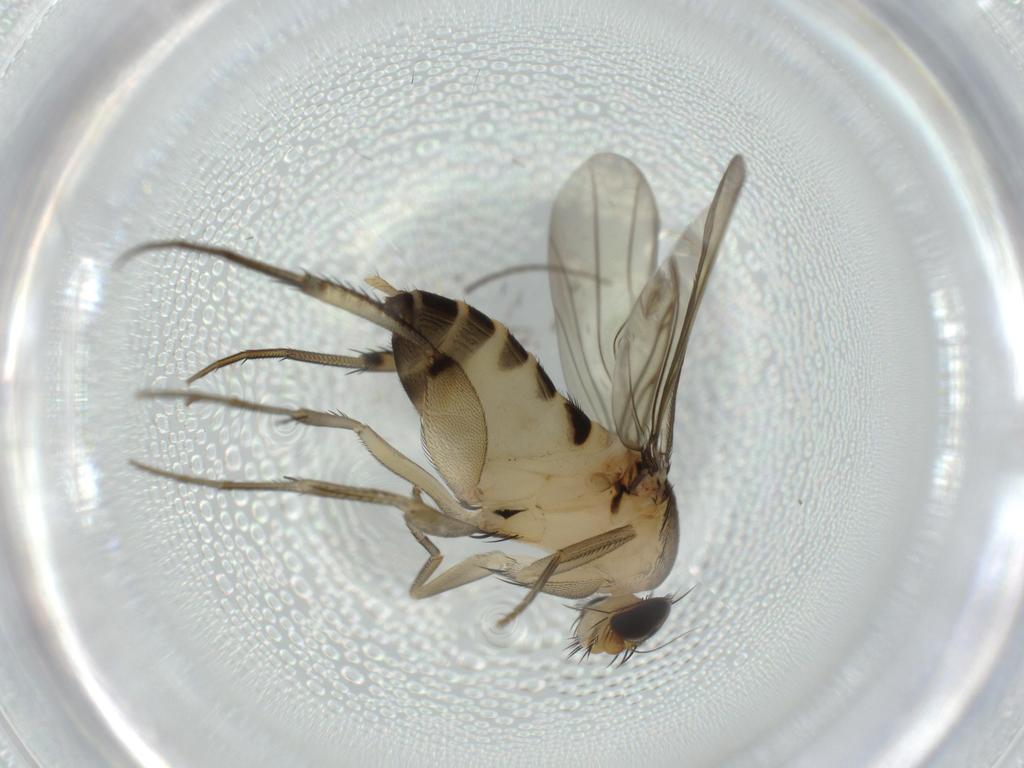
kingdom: Animalia
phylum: Arthropoda
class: Insecta
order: Diptera
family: Phoridae
